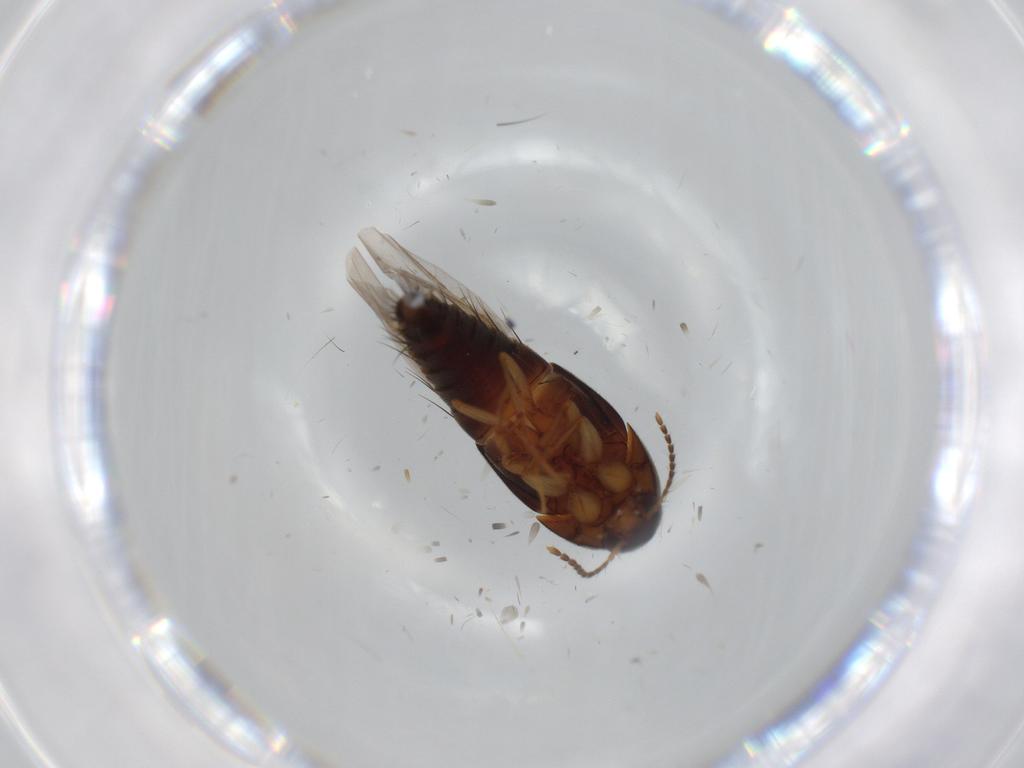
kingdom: Animalia
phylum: Arthropoda
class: Insecta
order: Coleoptera
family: Staphylinidae
